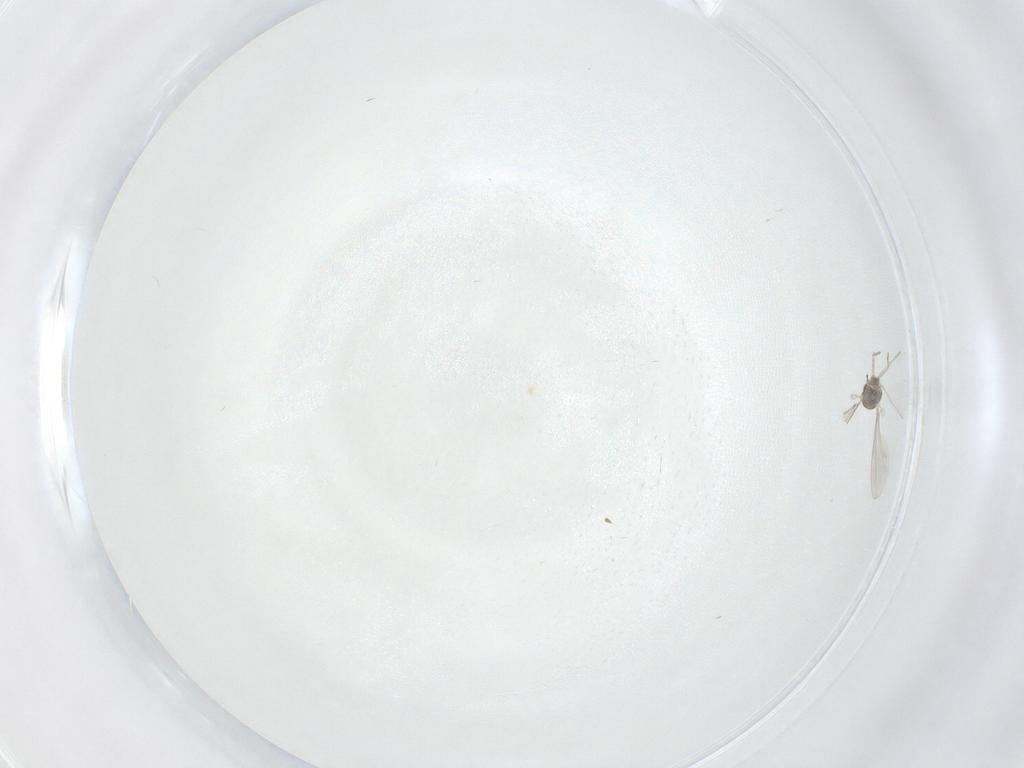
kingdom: Animalia
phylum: Arthropoda
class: Insecta
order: Diptera
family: Cecidomyiidae
